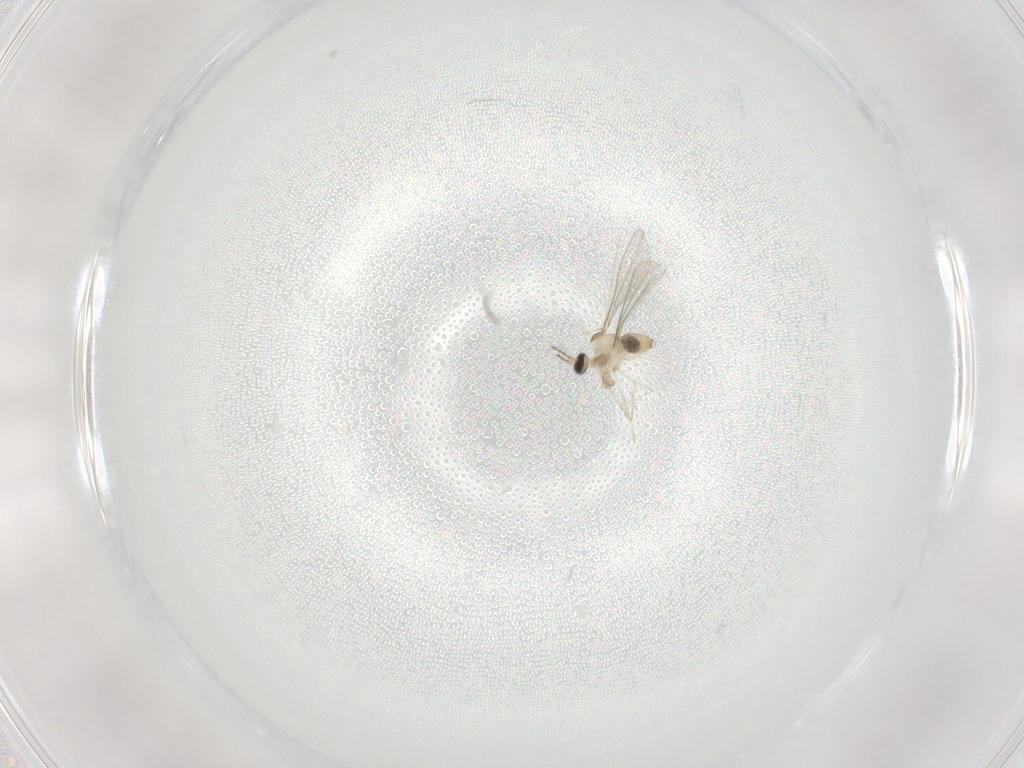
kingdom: Animalia
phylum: Arthropoda
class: Insecta
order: Diptera
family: Cecidomyiidae
